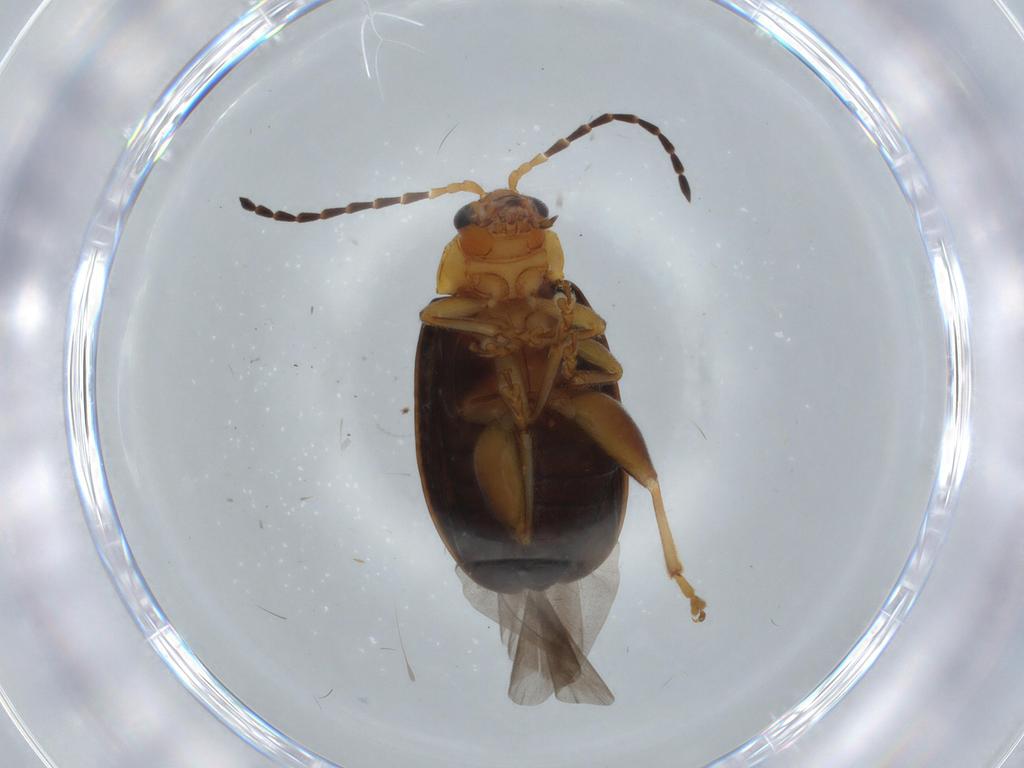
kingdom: Animalia
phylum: Arthropoda
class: Insecta
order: Coleoptera
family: Chrysomelidae
